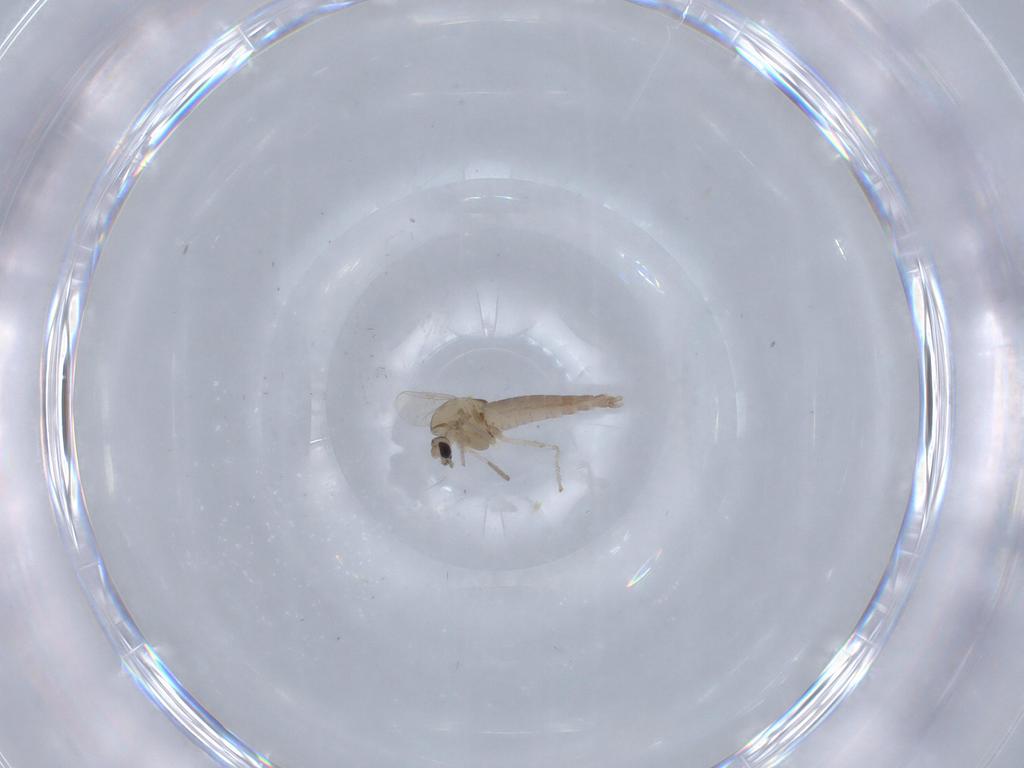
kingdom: Animalia
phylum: Arthropoda
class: Insecta
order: Diptera
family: Chironomidae
